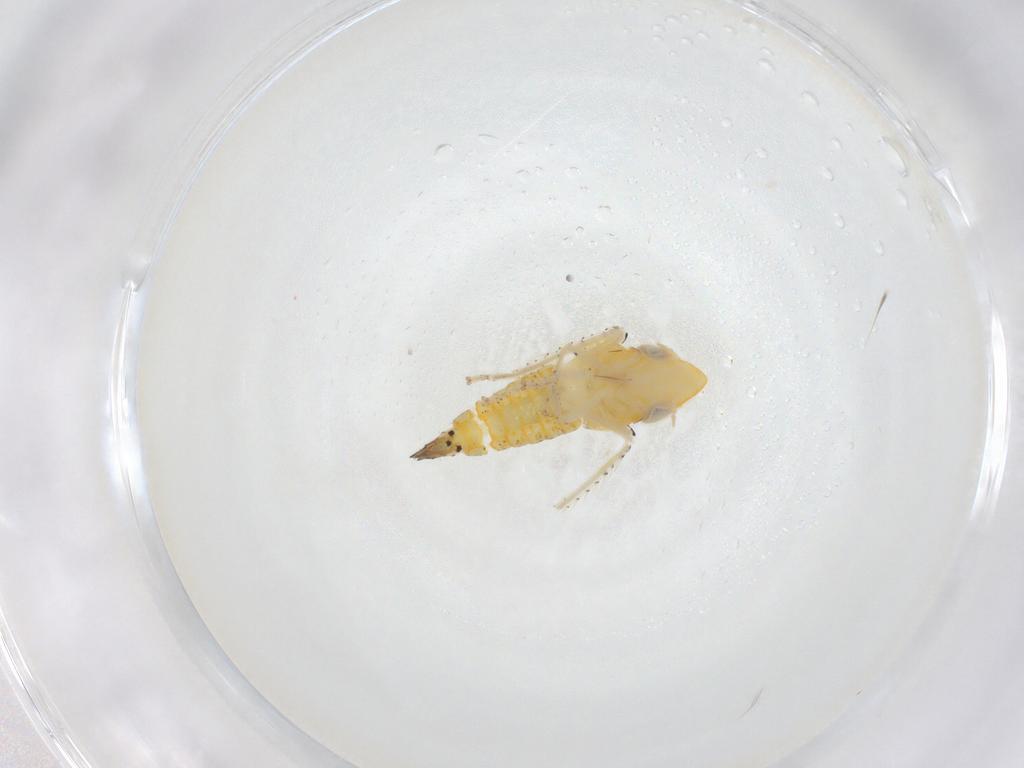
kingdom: Animalia
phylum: Arthropoda
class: Insecta
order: Hemiptera
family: Cicadellidae
